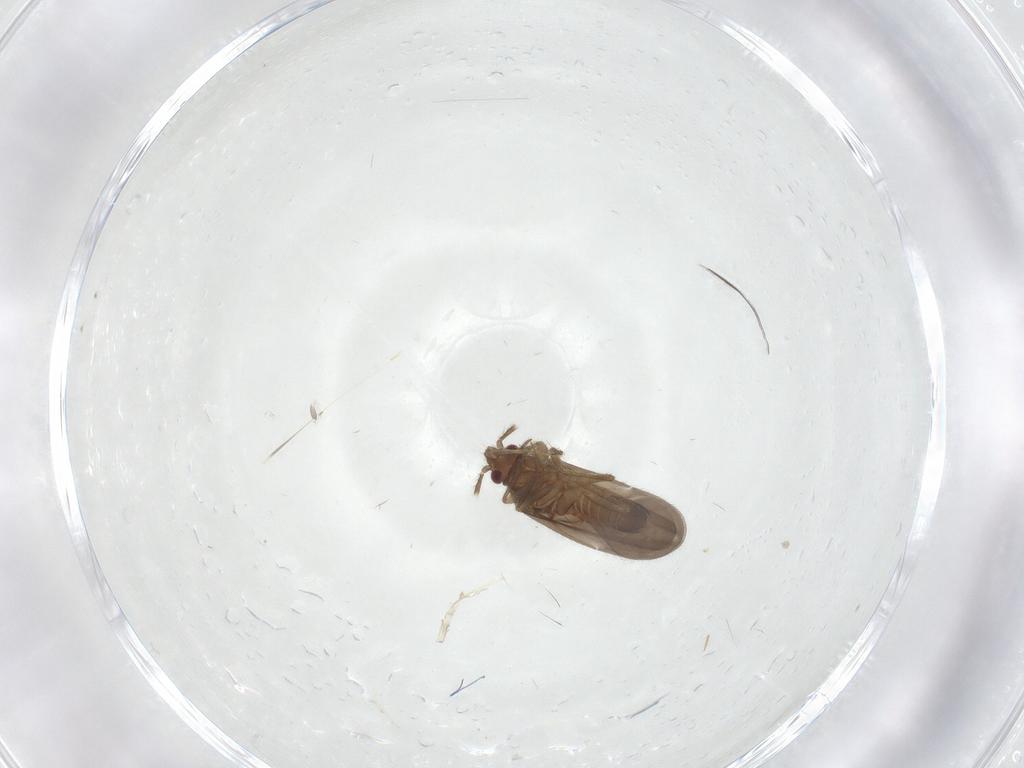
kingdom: Animalia
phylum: Arthropoda
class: Insecta
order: Hemiptera
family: Ceratocombidae
